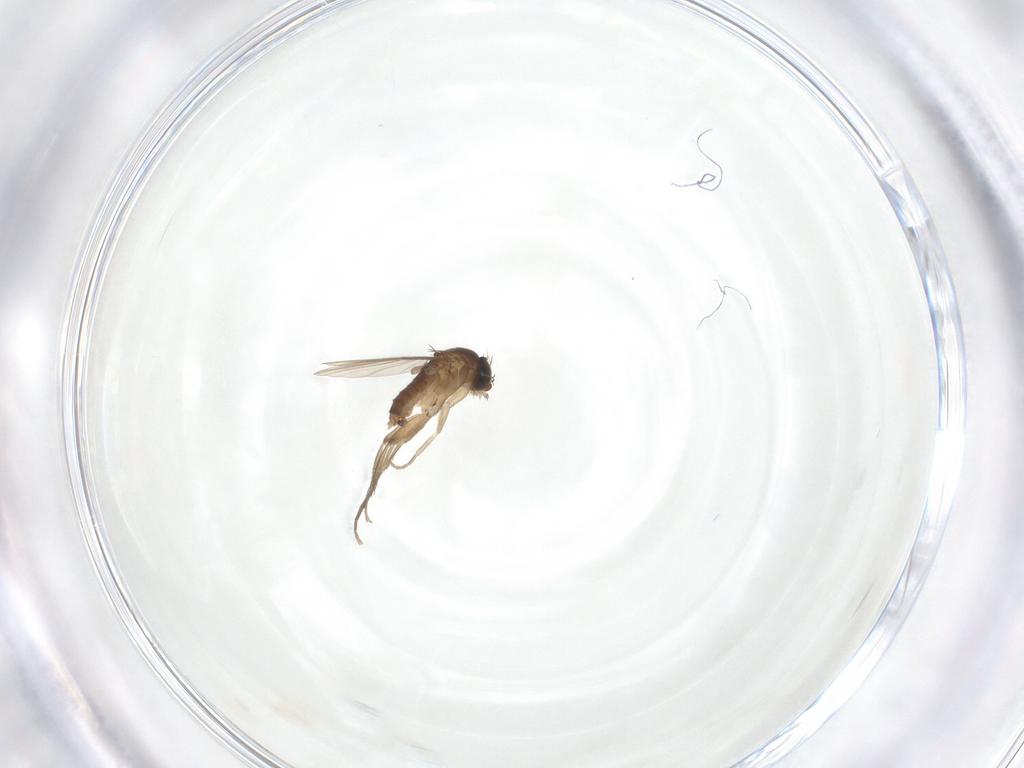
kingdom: Animalia
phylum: Arthropoda
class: Insecta
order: Diptera
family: Phoridae
